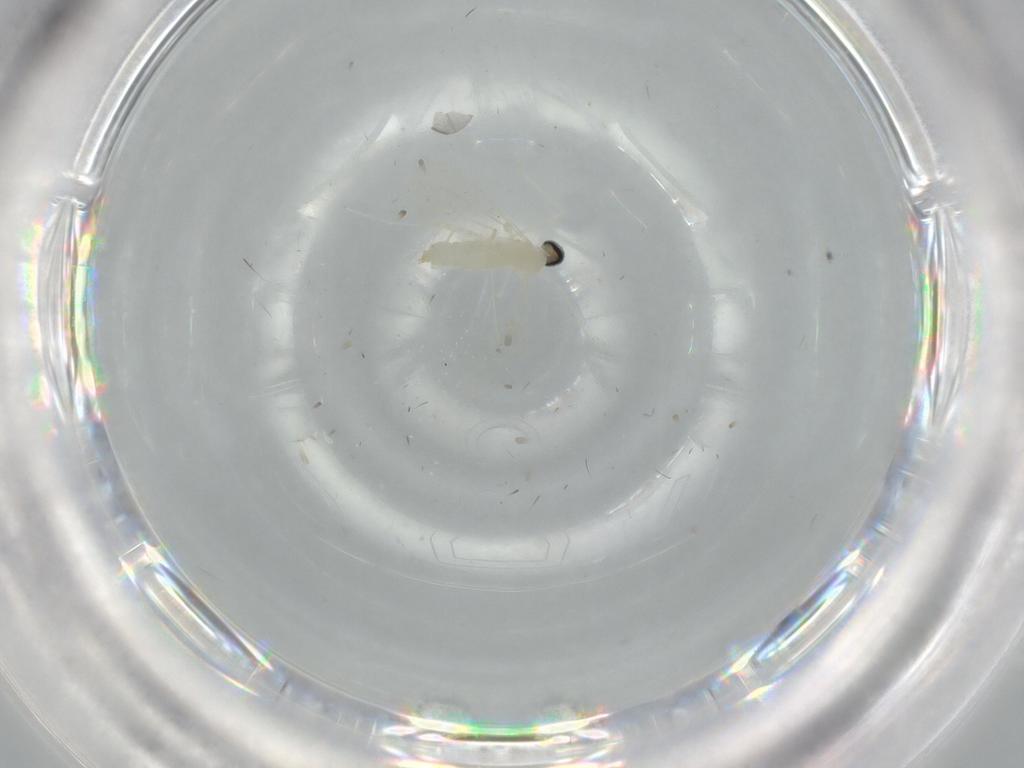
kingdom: Animalia
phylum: Arthropoda
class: Insecta
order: Diptera
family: Cecidomyiidae
